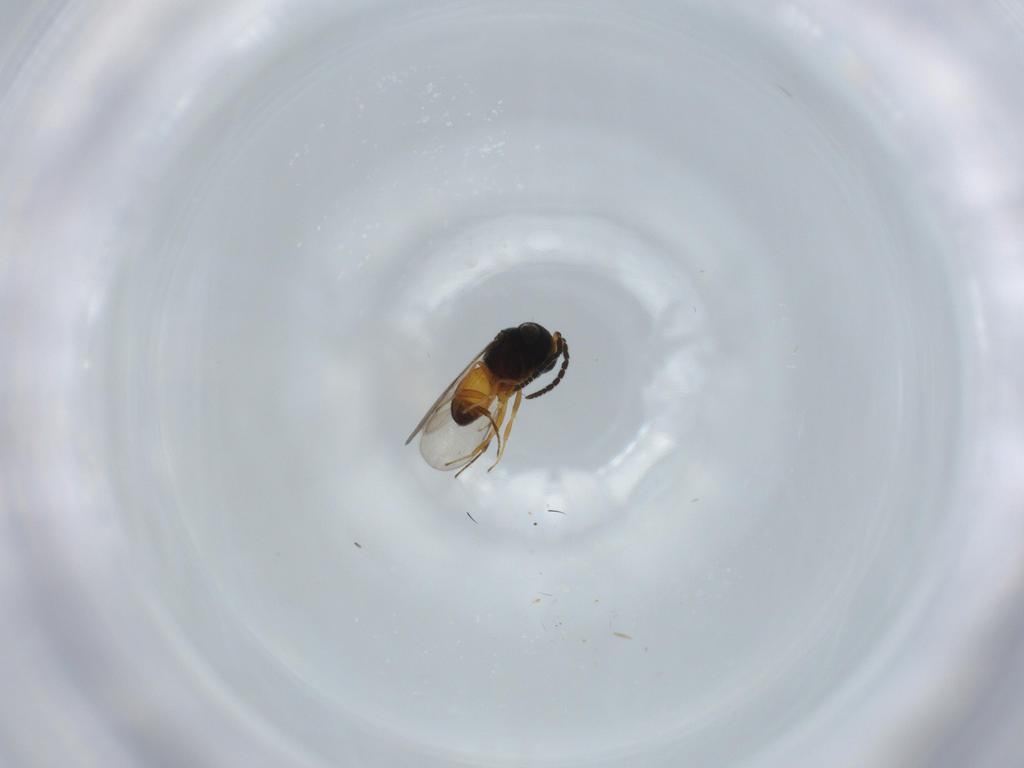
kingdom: Animalia
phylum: Arthropoda
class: Insecta
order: Hymenoptera
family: Scelionidae
